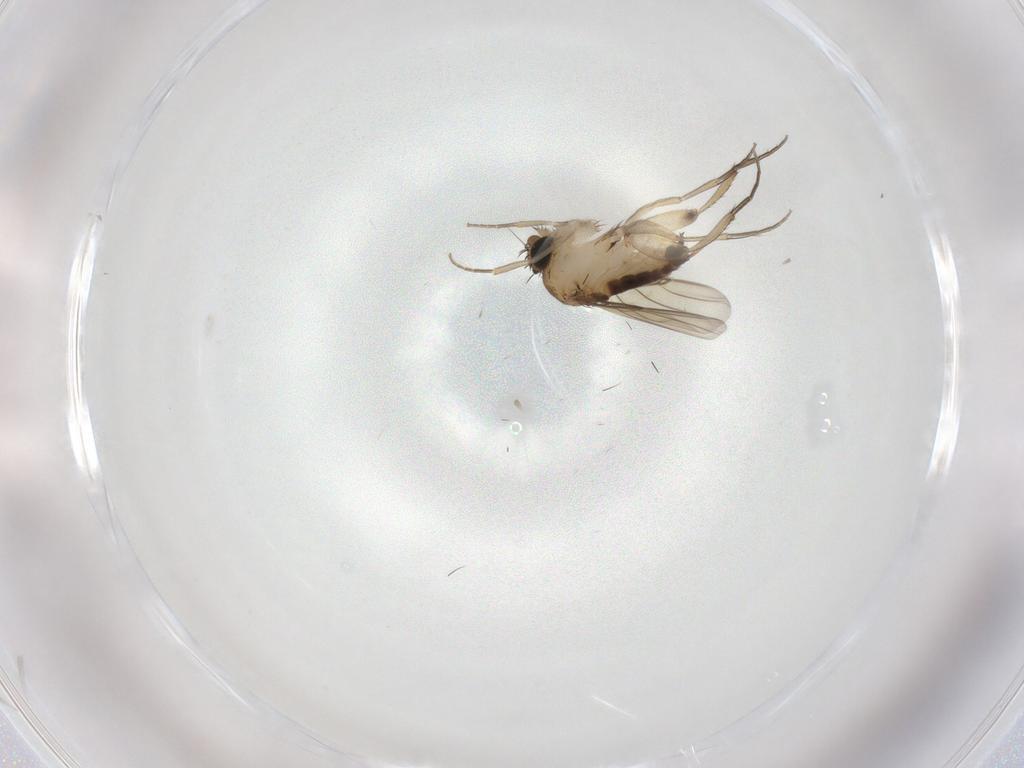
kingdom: Animalia
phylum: Arthropoda
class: Insecta
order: Diptera
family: Phoridae
